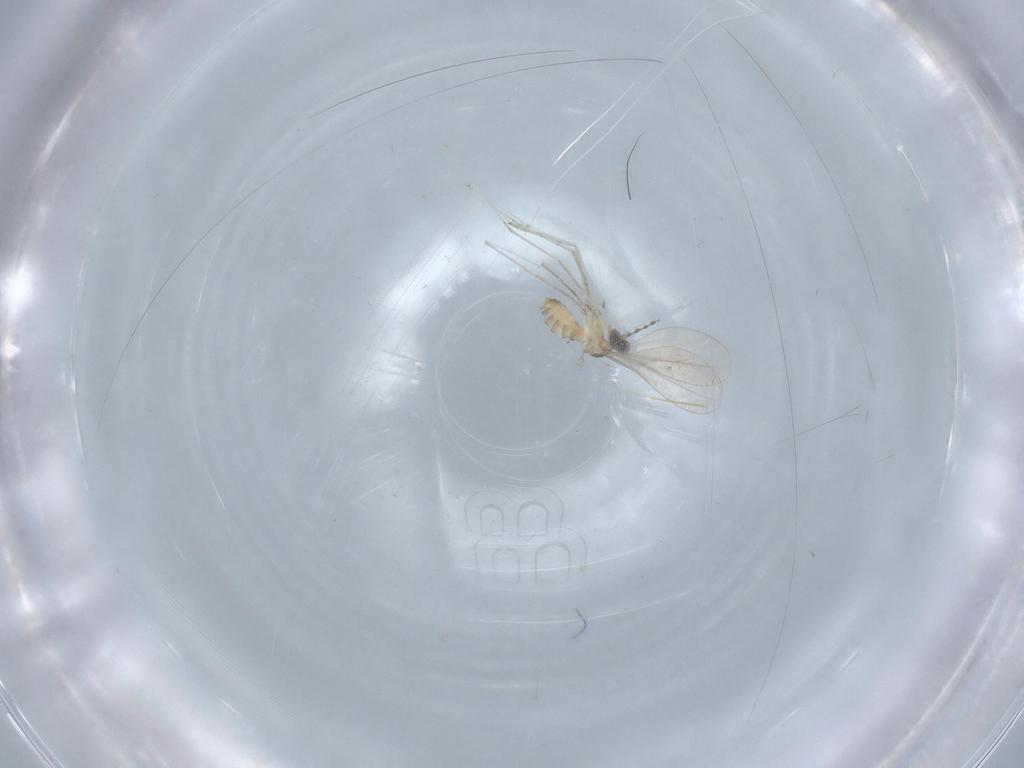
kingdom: Animalia
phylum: Arthropoda
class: Insecta
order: Diptera
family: Cecidomyiidae
